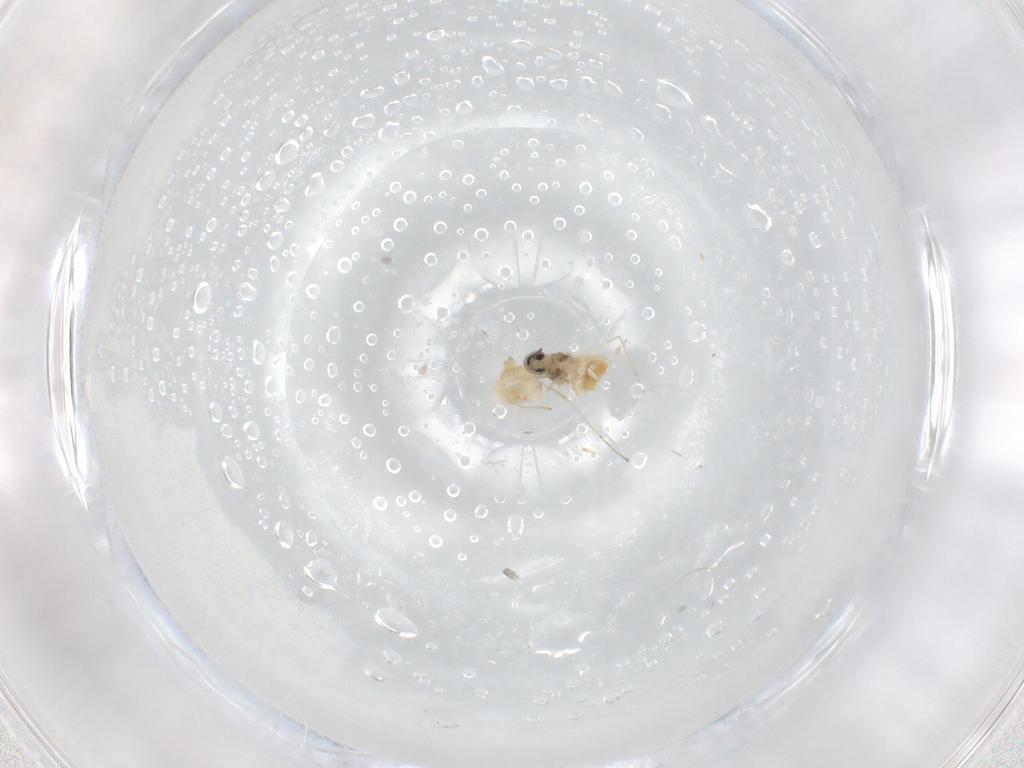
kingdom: Animalia
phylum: Arthropoda
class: Insecta
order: Diptera
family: Cecidomyiidae
